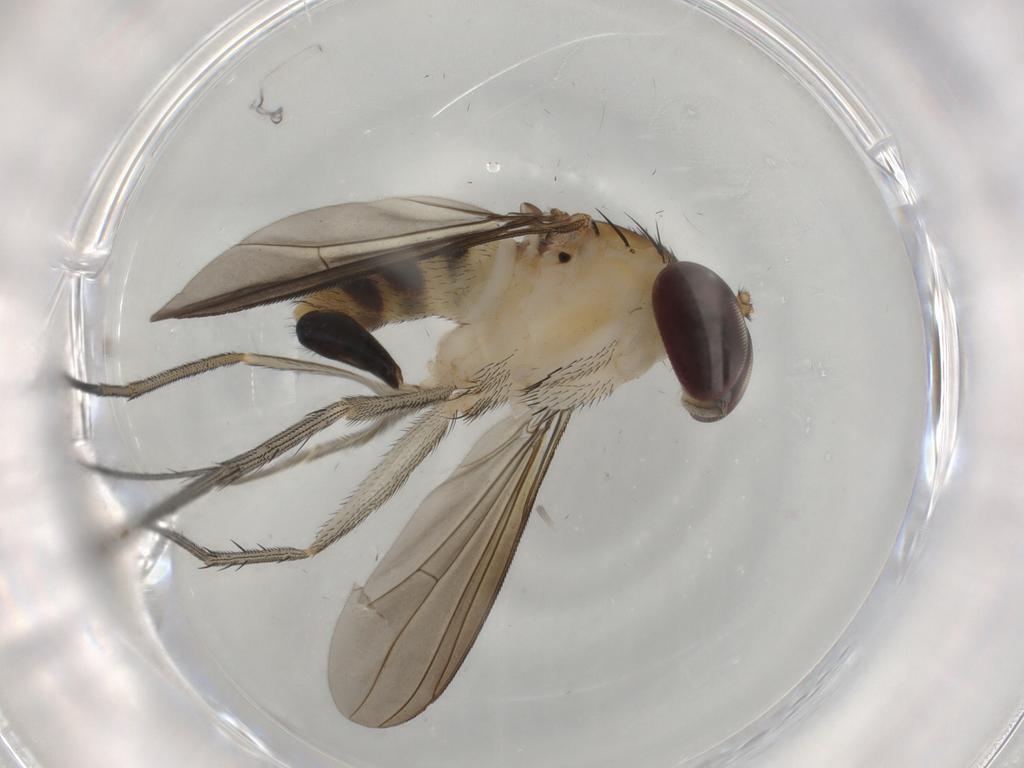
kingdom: Animalia
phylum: Arthropoda
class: Insecta
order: Diptera
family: Dolichopodidae
